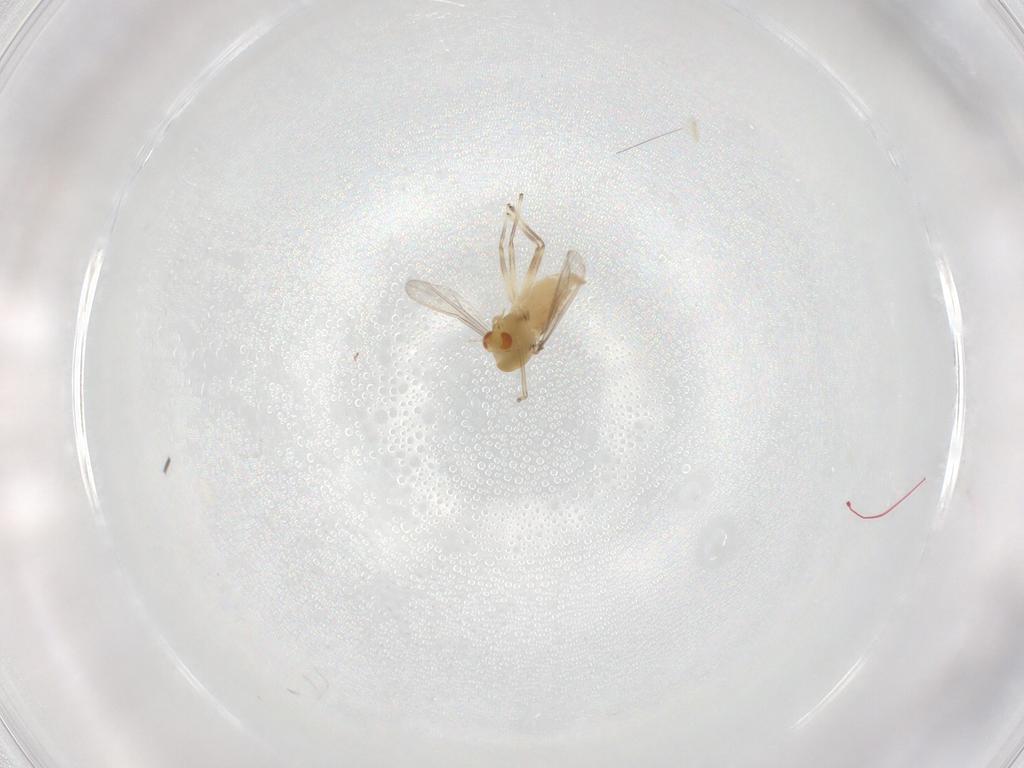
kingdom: Animalia
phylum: Arthropoda
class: Insecta
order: Diptera
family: Chironomidae
